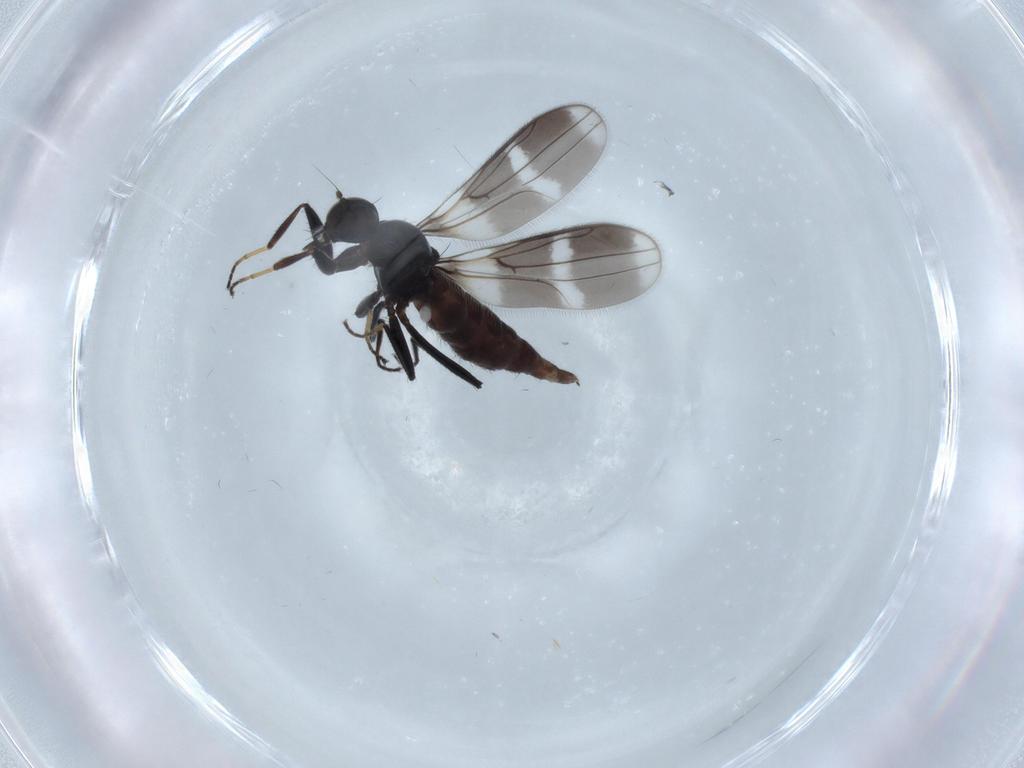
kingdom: Animalia
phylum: Arthropoda
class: Insecta
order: Diptera
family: Hybotidae
